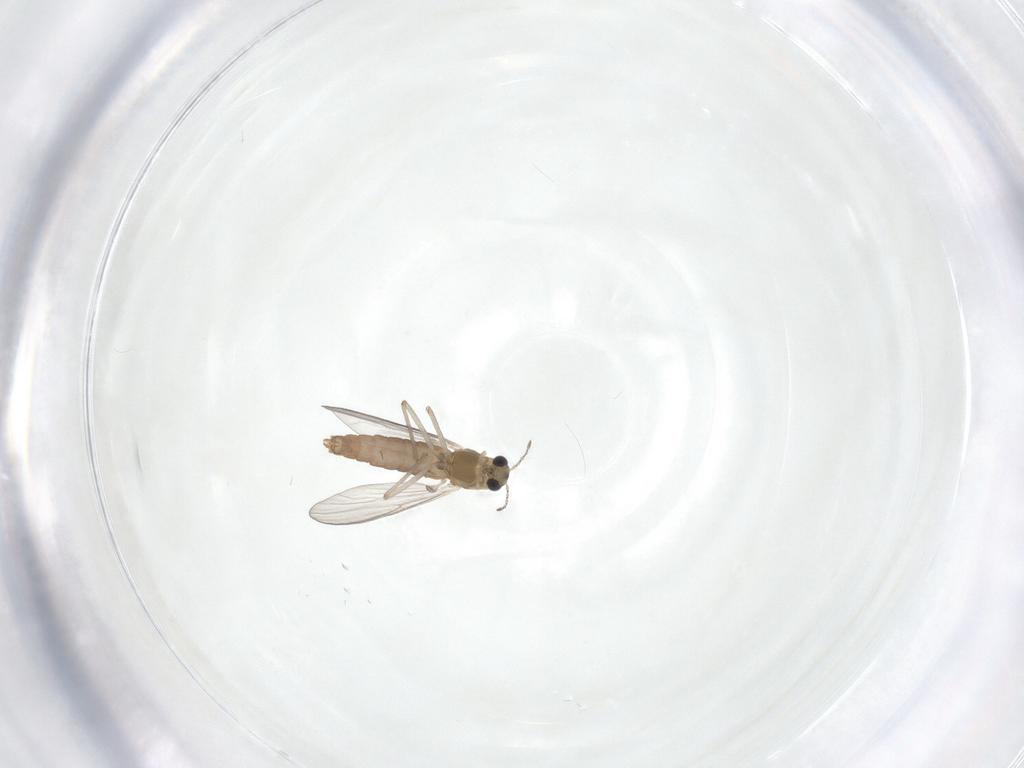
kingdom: Animalia
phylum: Arthropoda
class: Insecta
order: Diptera
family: Chironomidae
